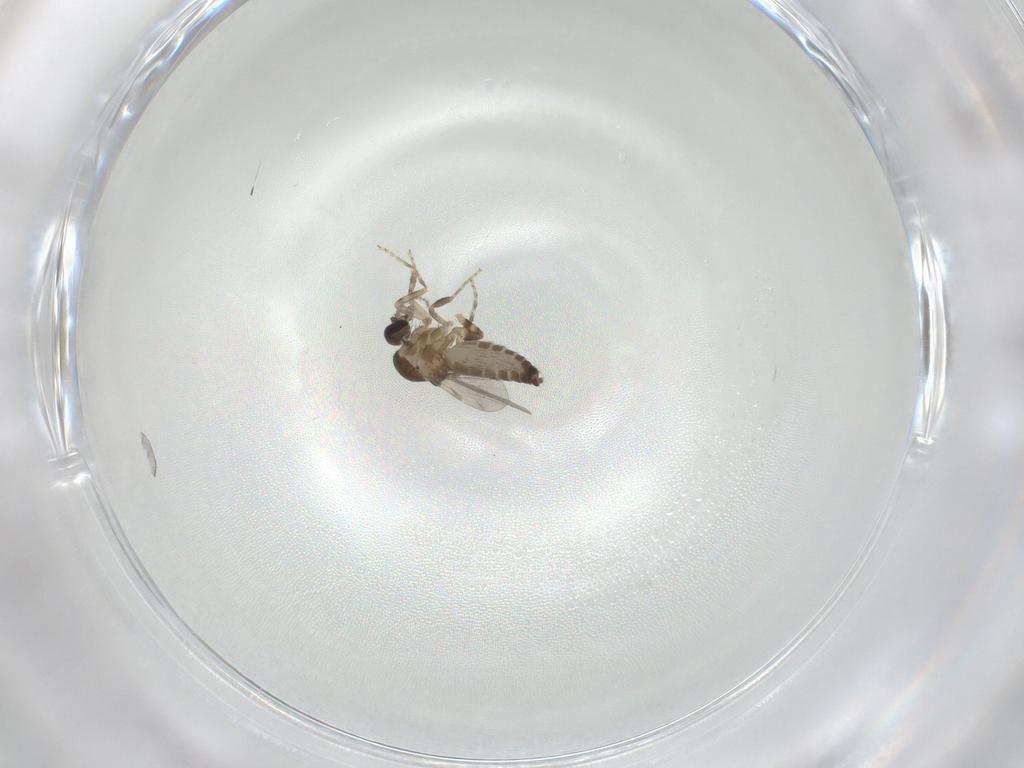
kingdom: Animalia
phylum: Arthropoda
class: Insecta
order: Diptera
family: Ceratopogonidae
